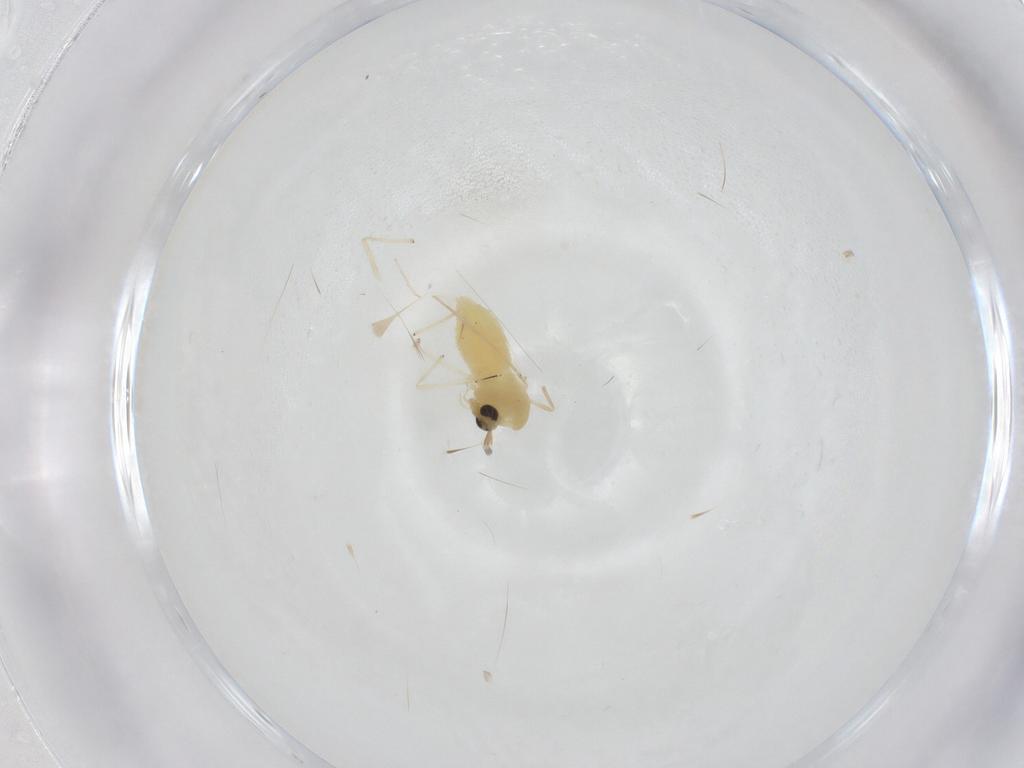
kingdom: Animalia
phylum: Arthropoda
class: Insecta
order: Diptera
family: Chironomidae
